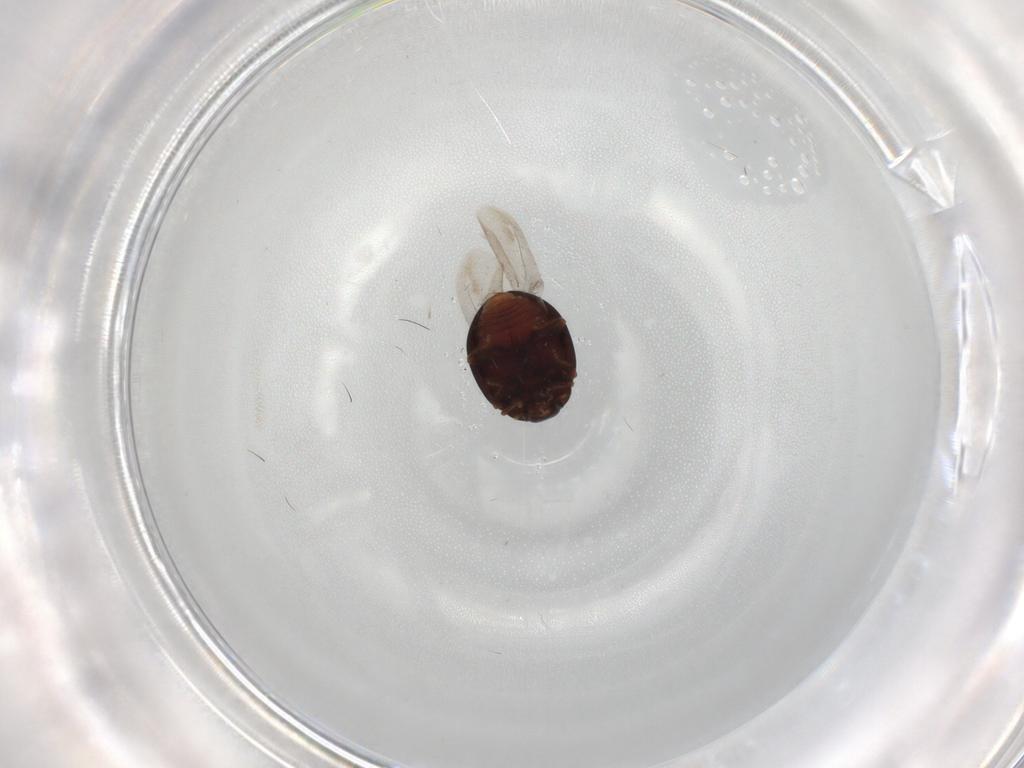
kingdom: Animalia
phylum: Arthropoda
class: Insecta
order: Coleoptera
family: Coccinellidae
